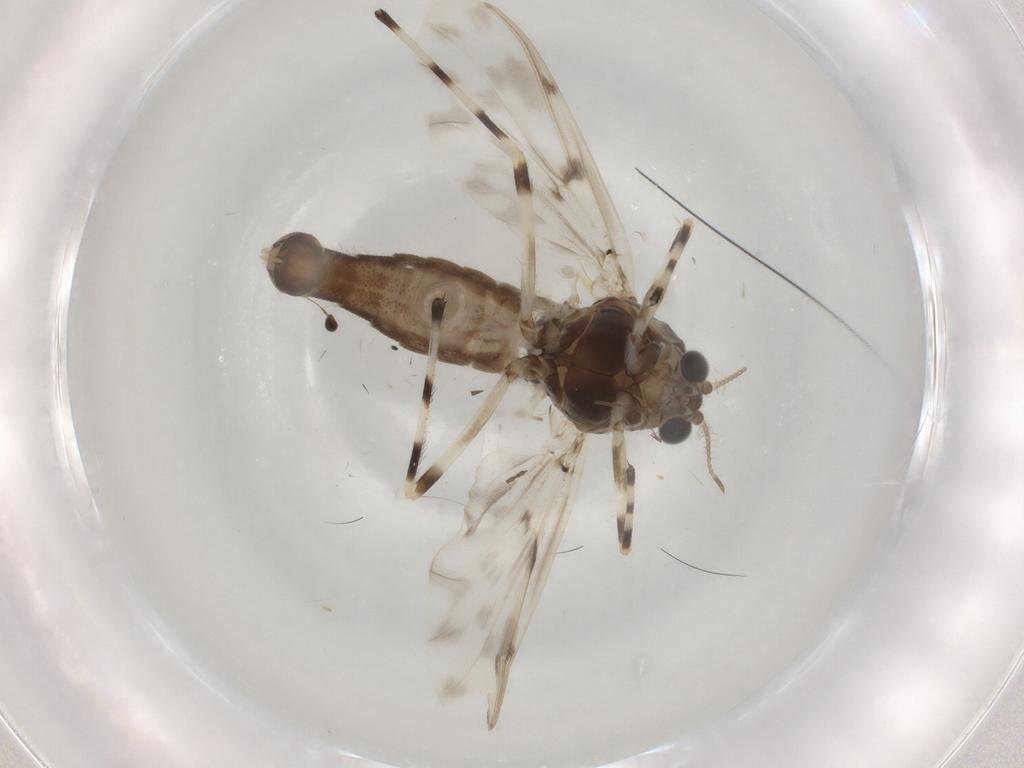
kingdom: Animalia
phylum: Arthropoda
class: Insecta
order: Diptera
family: Chironomidae
